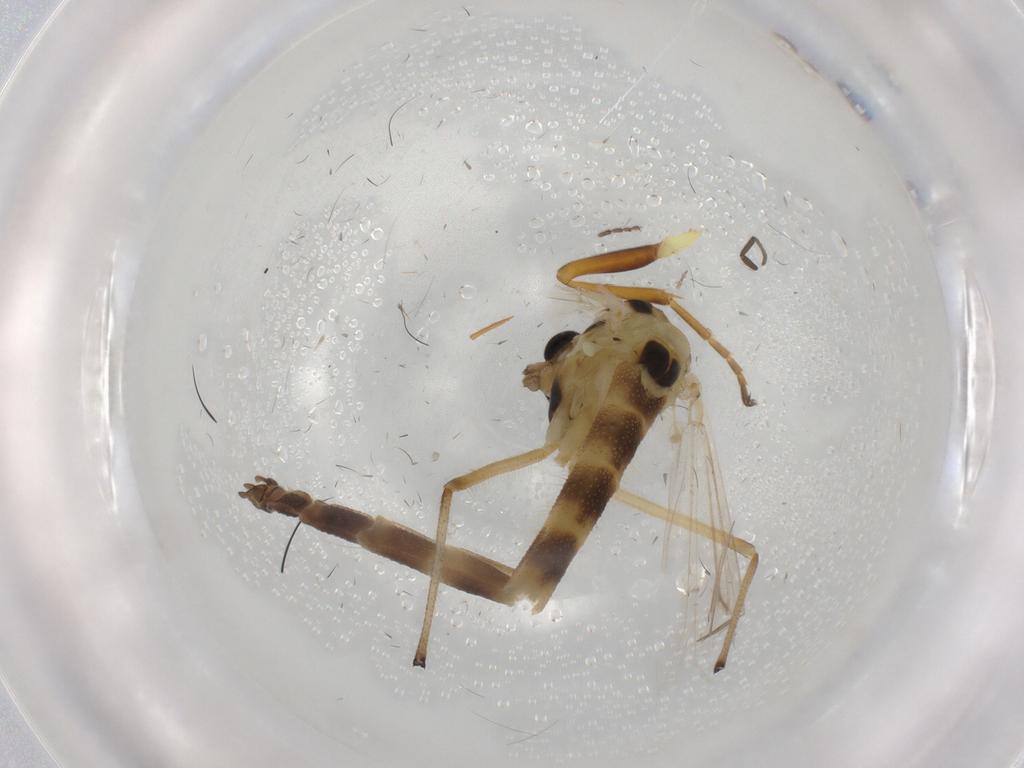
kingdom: Animalia
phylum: Arthropoda
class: Insecta
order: Diptera
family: Chironomidae
